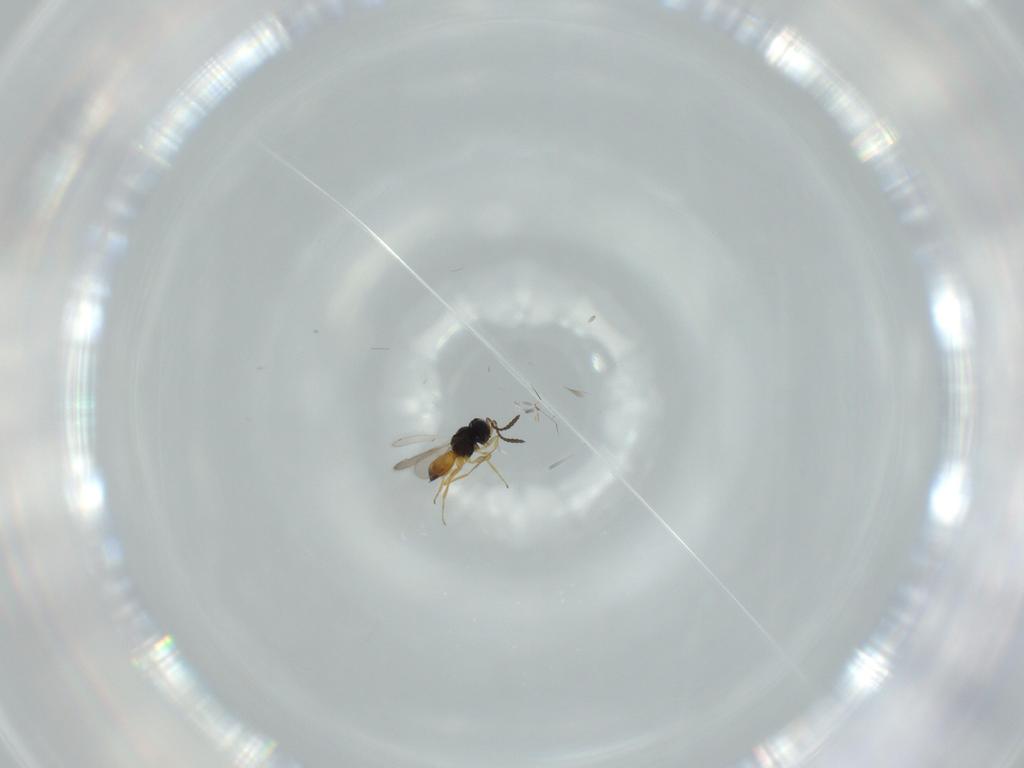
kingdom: Animalia
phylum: Arthropoda
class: Insecta
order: Hymenoptera
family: Scelionidae
